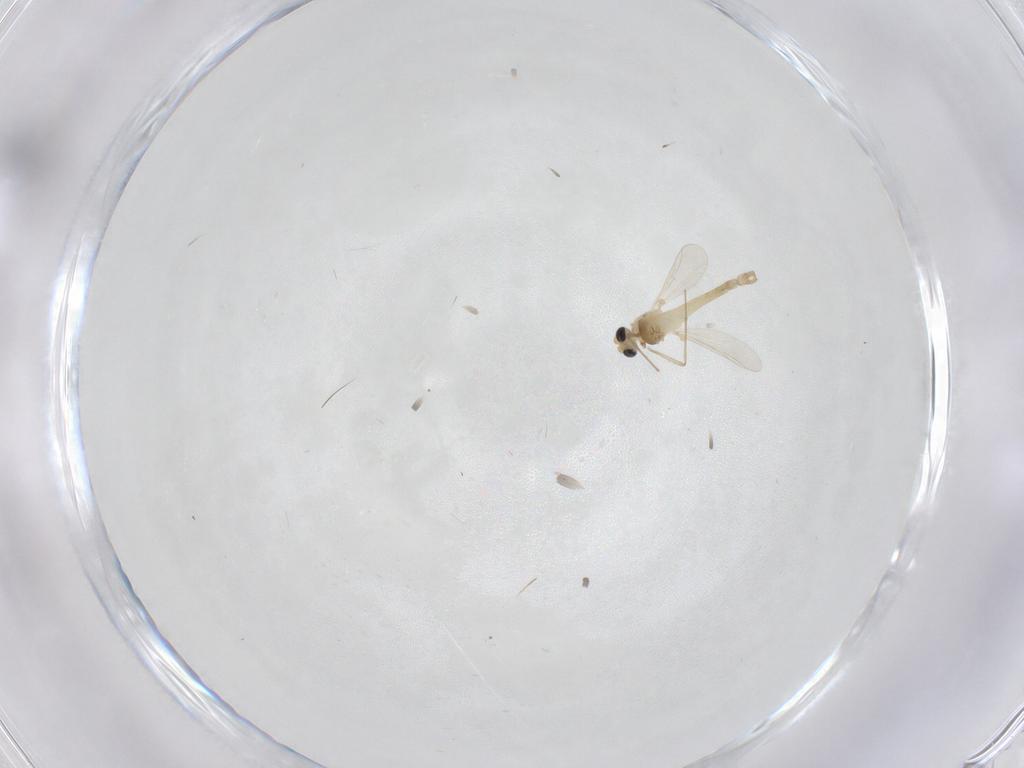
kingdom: Animalia
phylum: Arthropoda
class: Insecta
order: Diptera
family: Chironomidae
